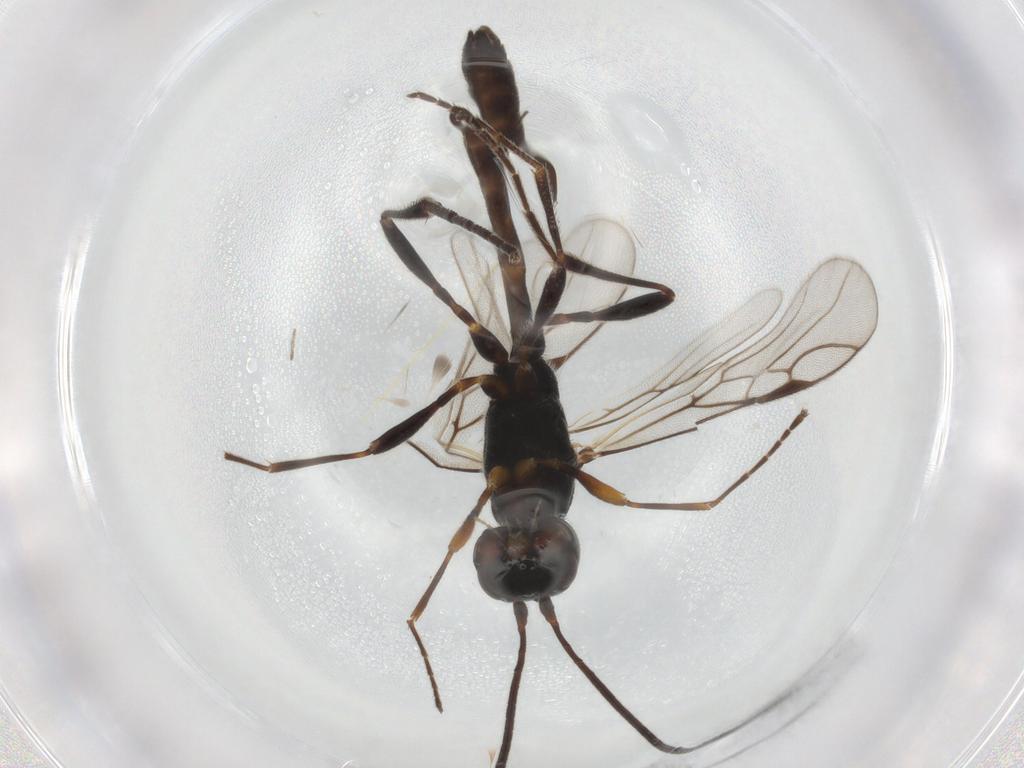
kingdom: Animalia
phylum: Arthropoda
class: Insecta
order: Hymenoptera
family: Braconidae
